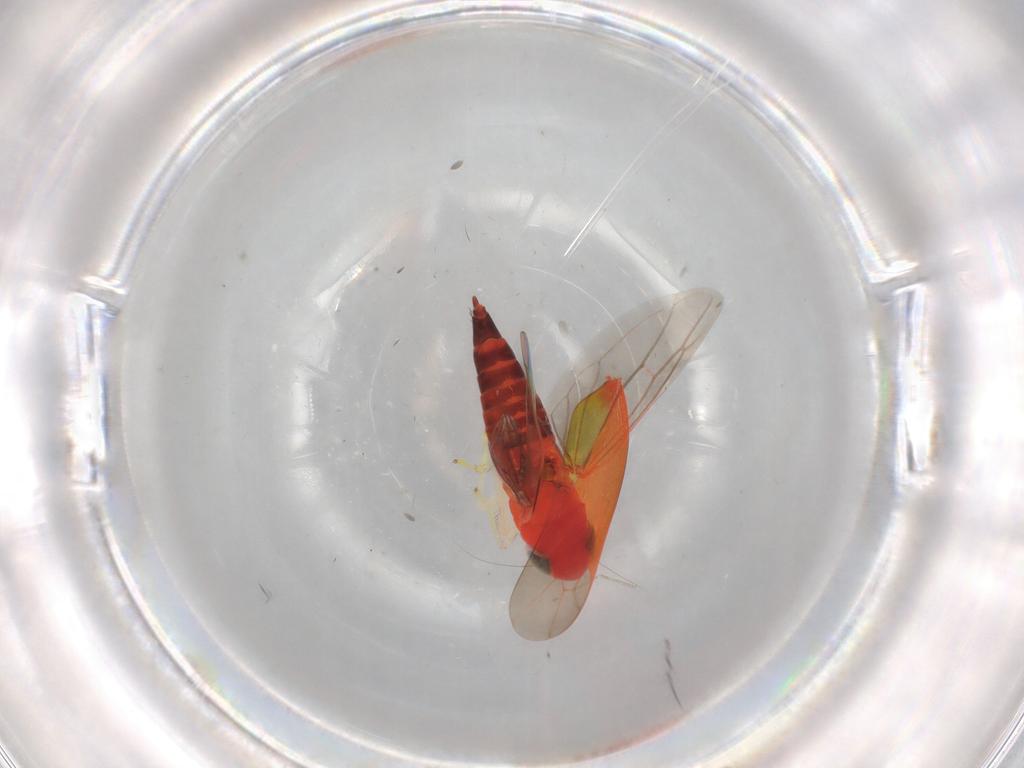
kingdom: Animalia
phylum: Arthropoda
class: Insecta
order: Hemiptera
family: Cicadellidae
